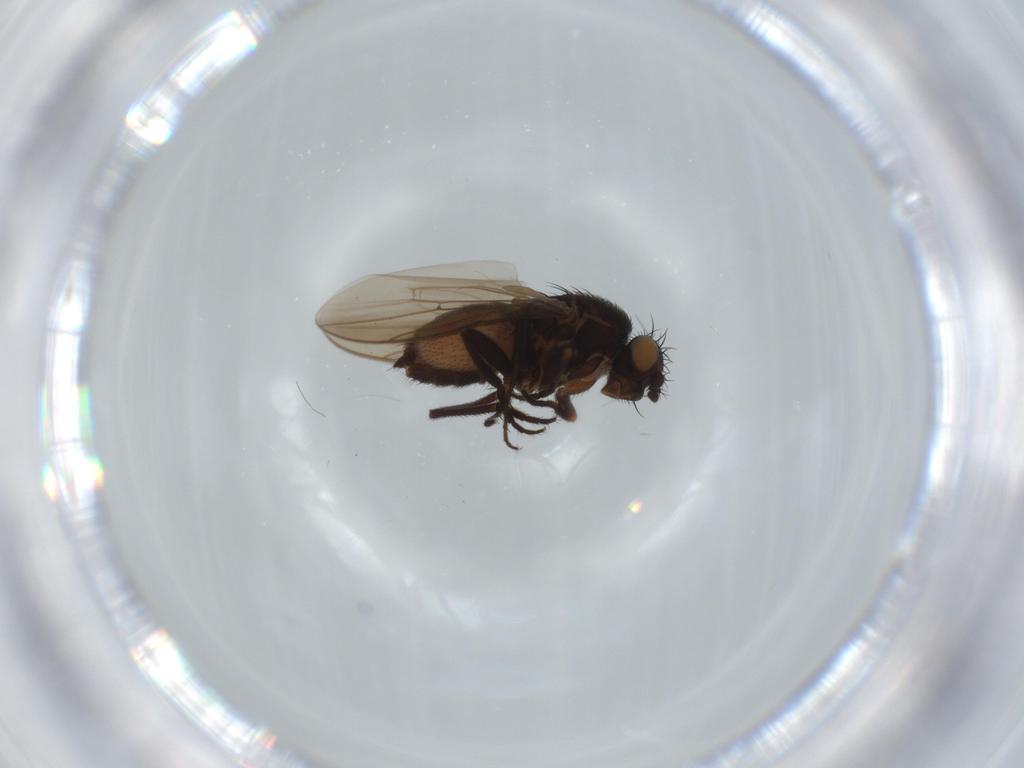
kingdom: Animalia
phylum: Arthropoda
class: Insecta
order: Diptera
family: Sphaeroceridae
